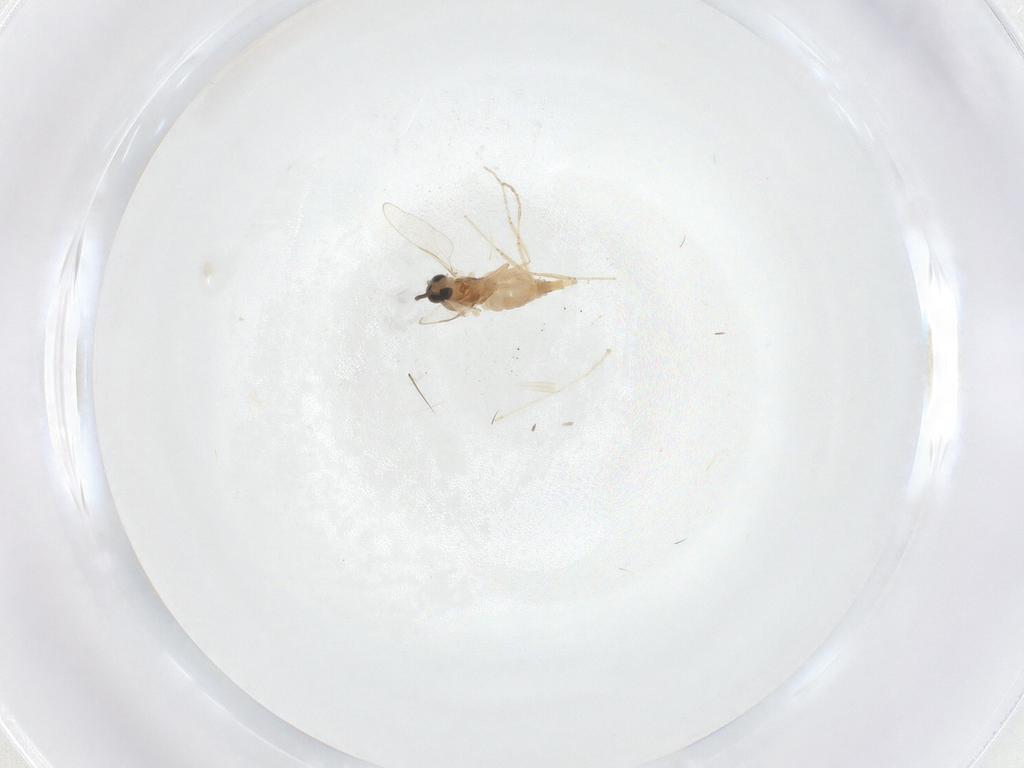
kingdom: Animalia
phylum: Arthropoda
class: Insecta
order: Diptera
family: Cecidomyiidae
